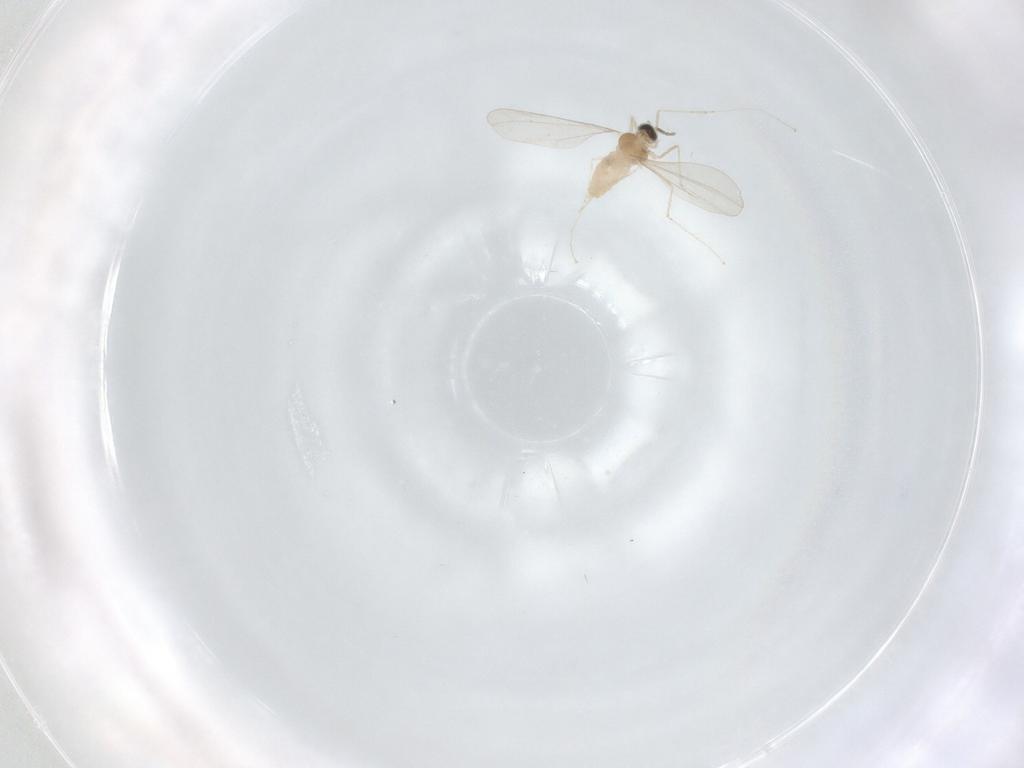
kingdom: Animalia
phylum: Arthropoda
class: Insecta
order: Diptera
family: Cecidomyiidae
